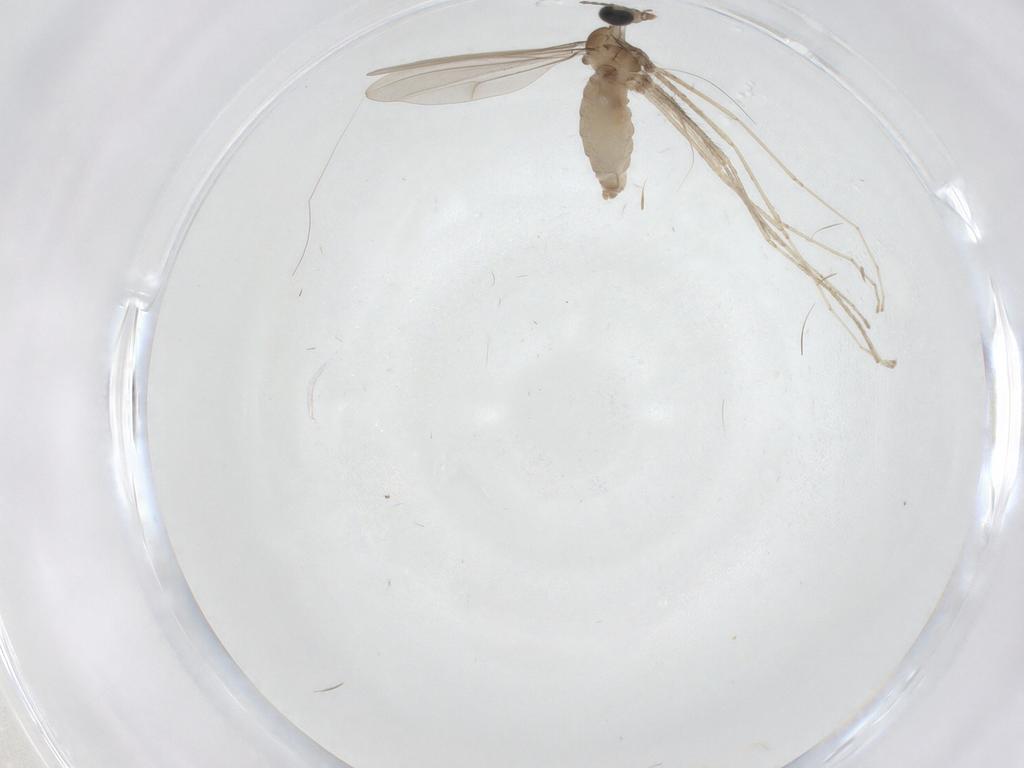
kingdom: Animalia
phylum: Arthropoda
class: Insecta
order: Diptera
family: Cecidomyiidae
